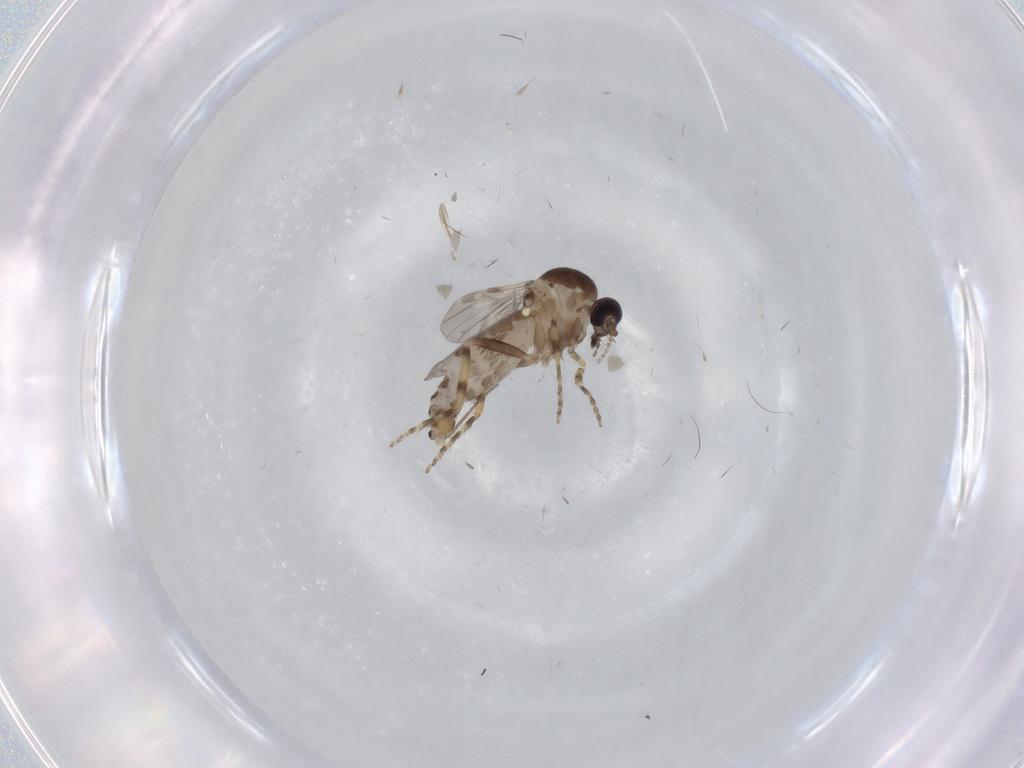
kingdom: Animalia
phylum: Arthropoda
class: Insecta
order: Diptera
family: Ceratopogonidae
